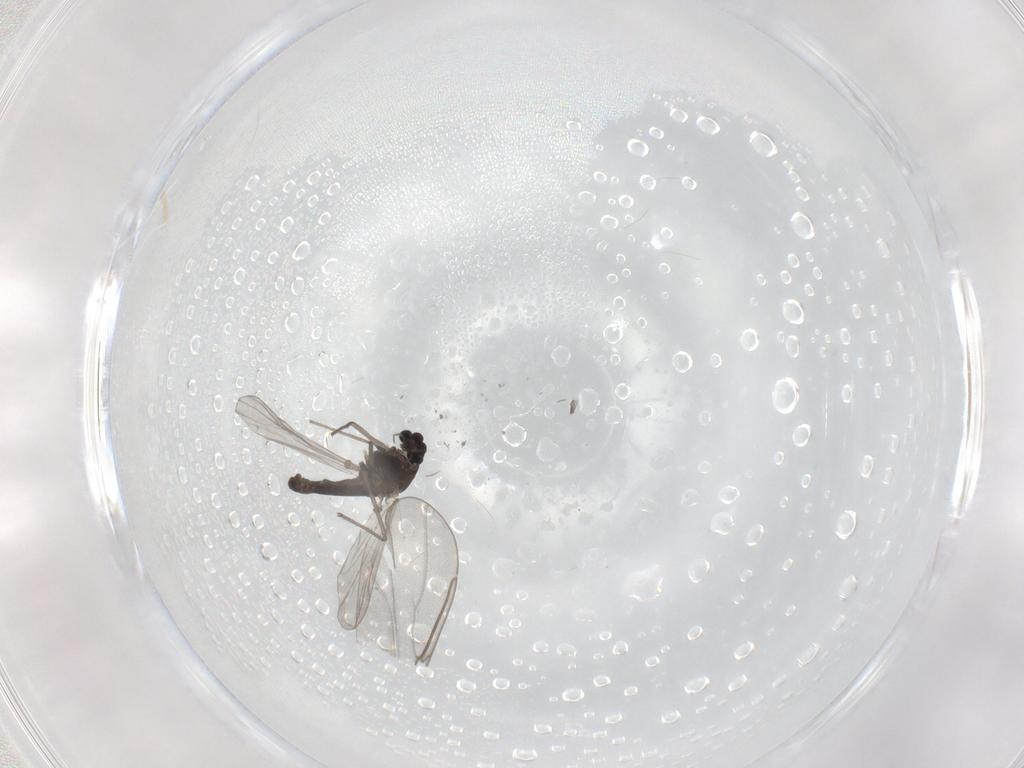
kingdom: Animalia
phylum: Arthropoda
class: Insecta
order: Diptera
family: Chironomidae
